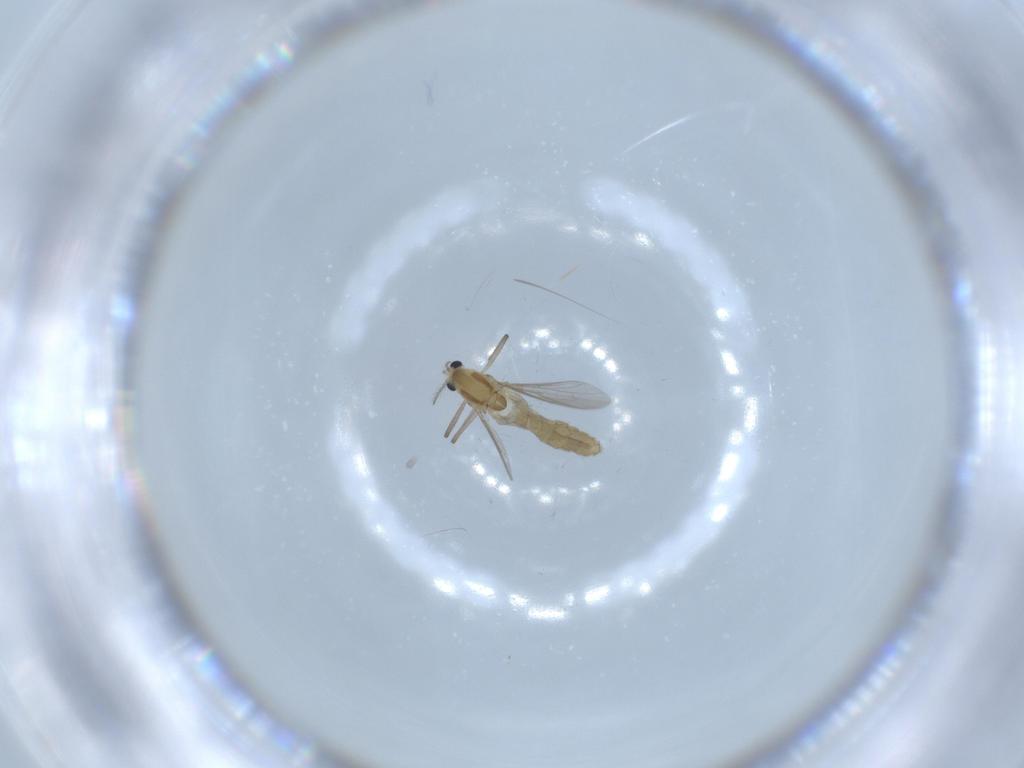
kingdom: Animalia
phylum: Arthropoda
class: Insecta
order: Diptera
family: Chironomidae
